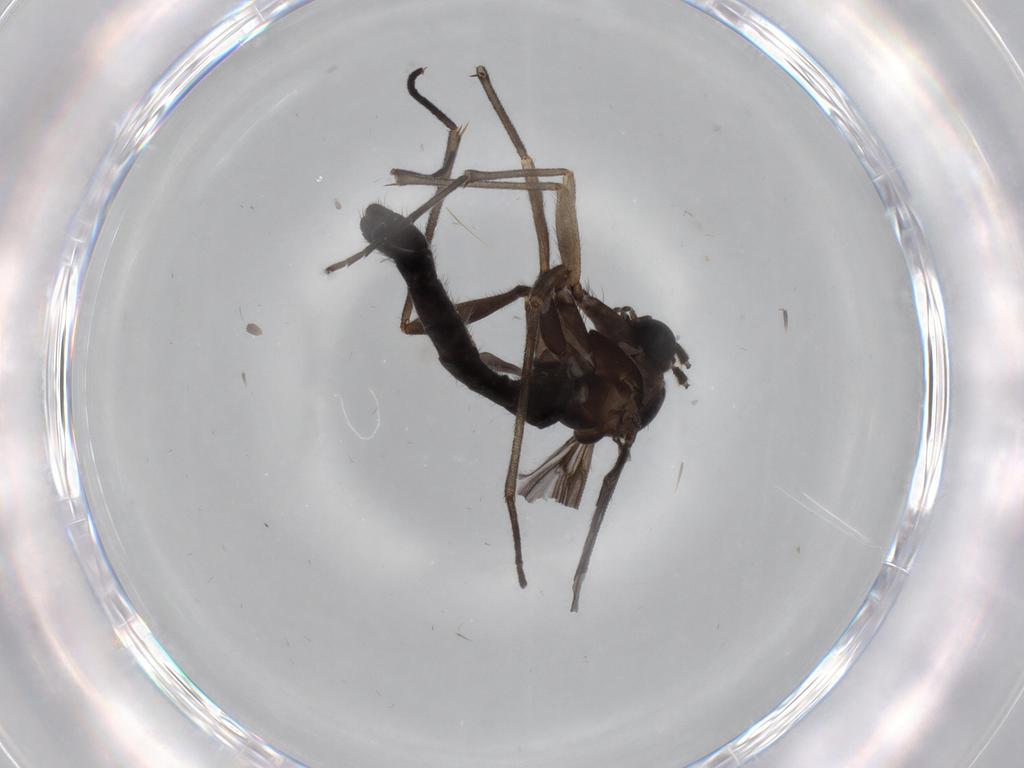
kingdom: Animalia
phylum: Arthropoda
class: Insecta
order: Diptera
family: Sciaridae
